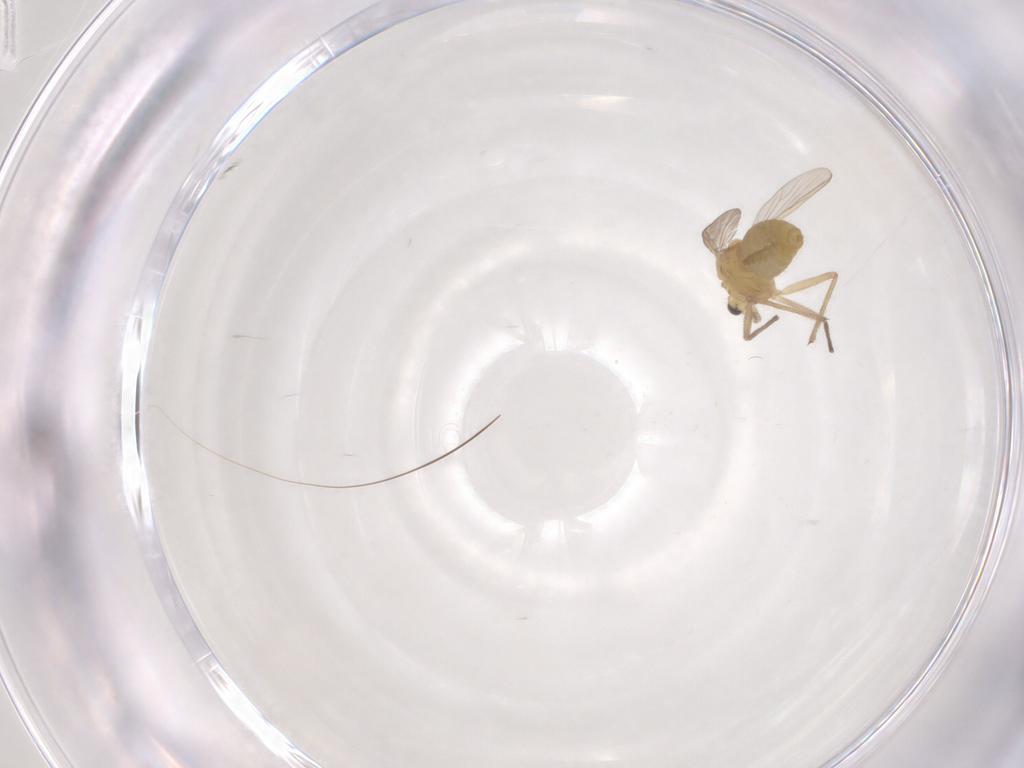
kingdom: Animalia
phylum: Arthropoda
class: Insecta
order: Diptera
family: Chironomidae
